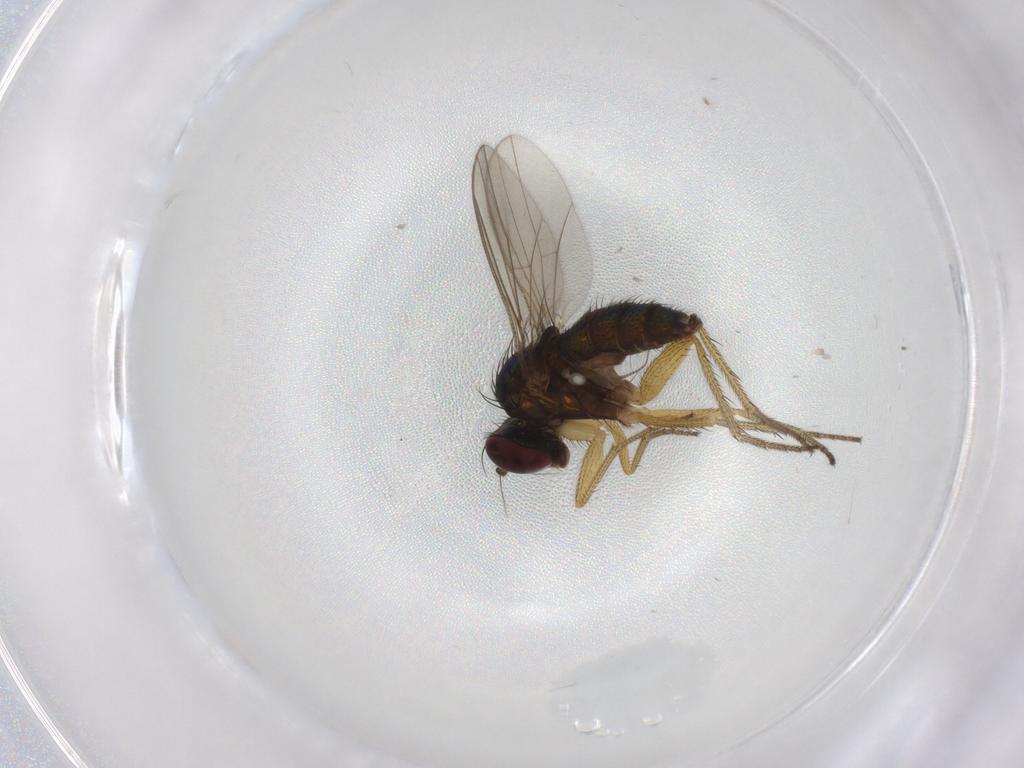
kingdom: Animalia
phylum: Arthropoda
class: Insecta
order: Diptera
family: Chironomidae
